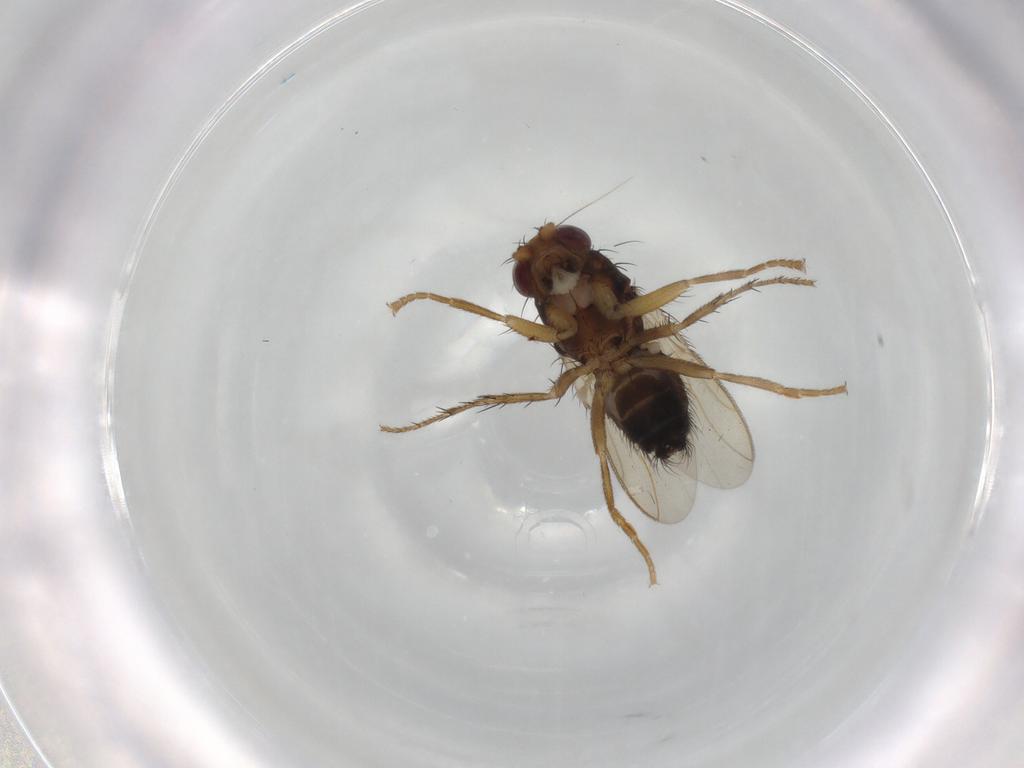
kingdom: Animalia
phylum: Arthropoda
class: Insecta
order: Diptera
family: Sphaeroceridae
